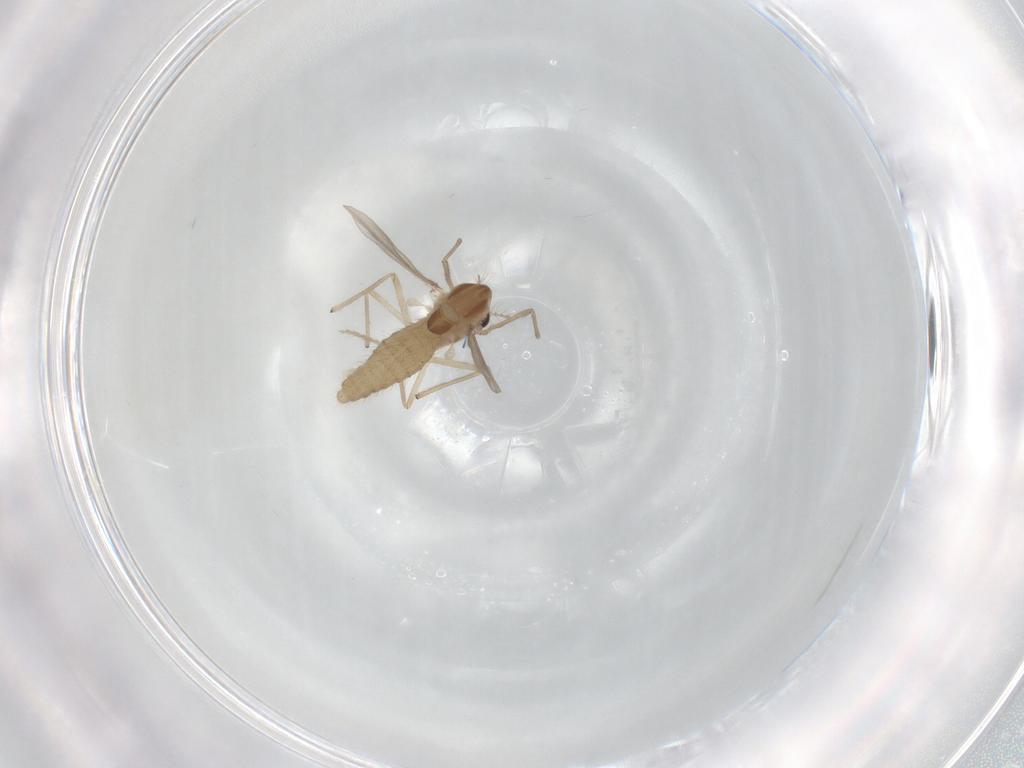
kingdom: Animalia
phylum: Arthropoda
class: Insecta
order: Diptera
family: Chironomidae
